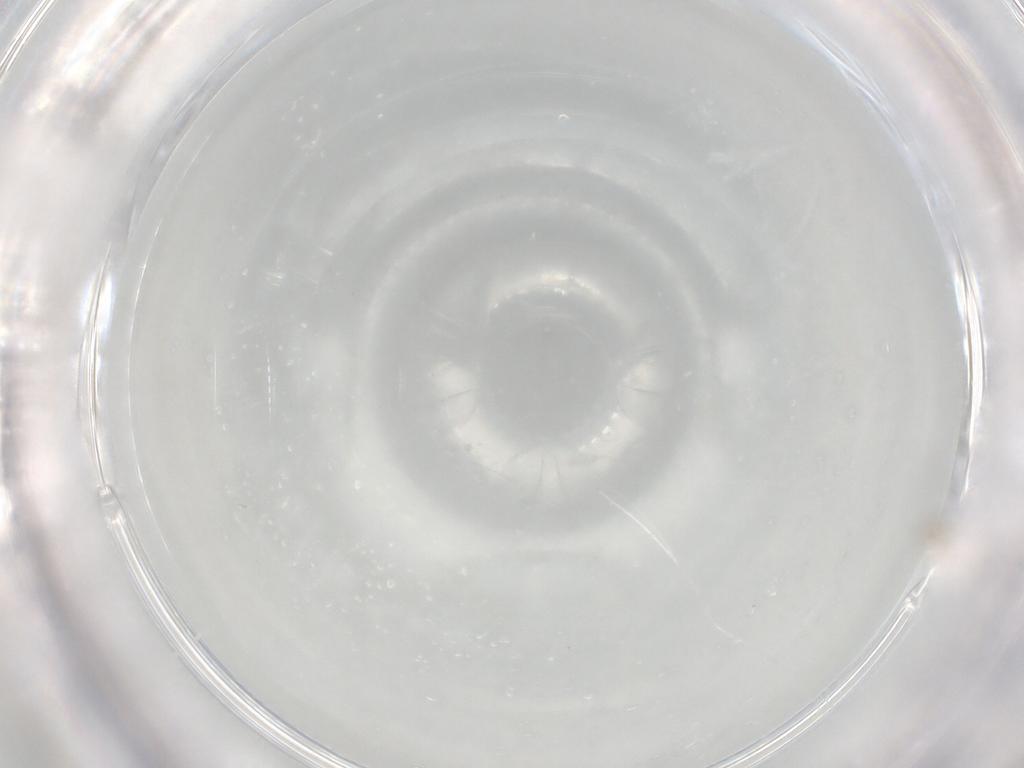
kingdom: Animalia
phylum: Arthropoda
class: Insecta
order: Hemiptera
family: Aleyrodidae
